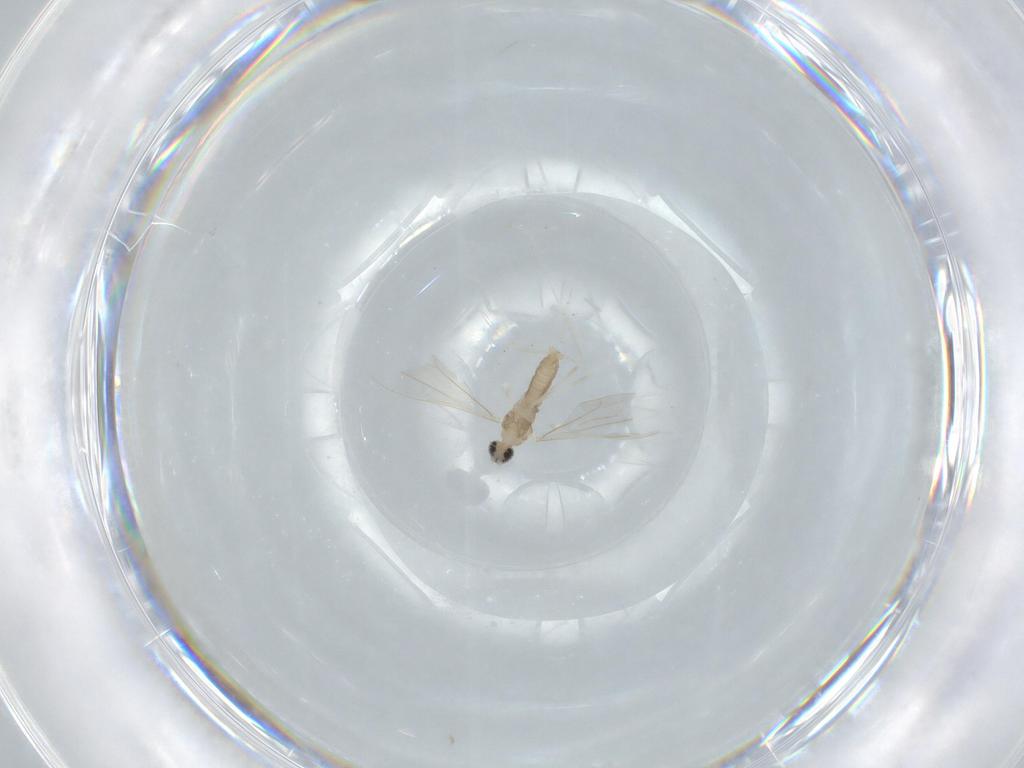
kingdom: Animalia
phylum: Arthropoda
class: Insecta
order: Diptera
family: Cecidomyiidae
